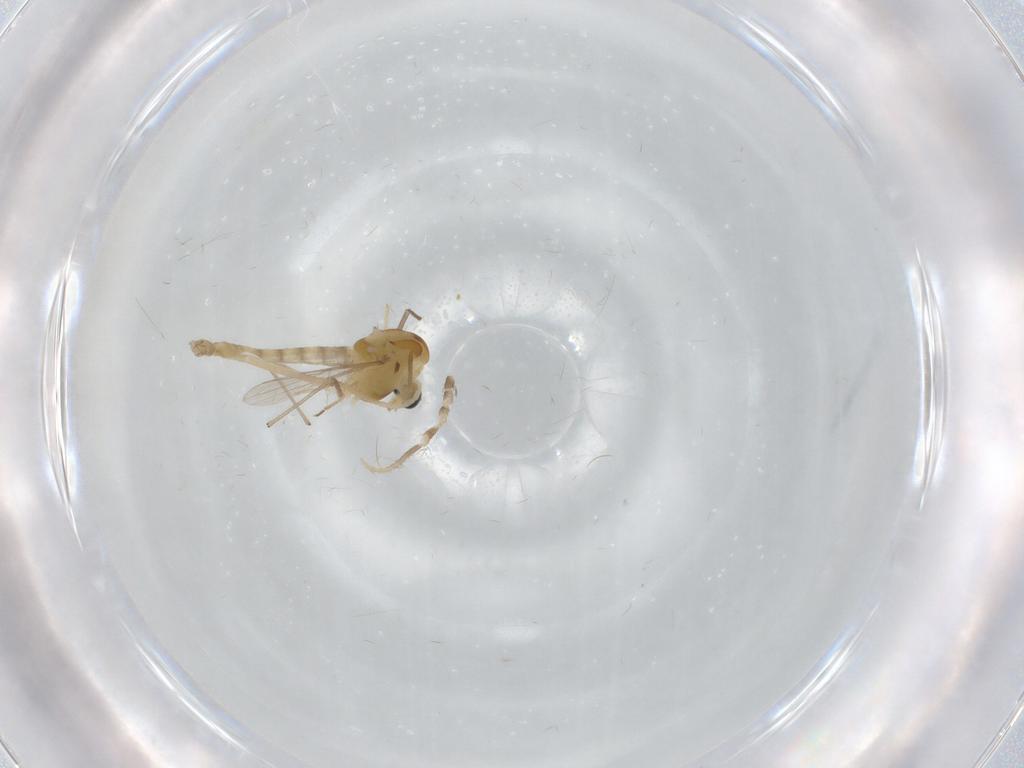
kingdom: Animalia
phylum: Arthropoda
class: Insecta
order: Diptera
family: Chironomidae
